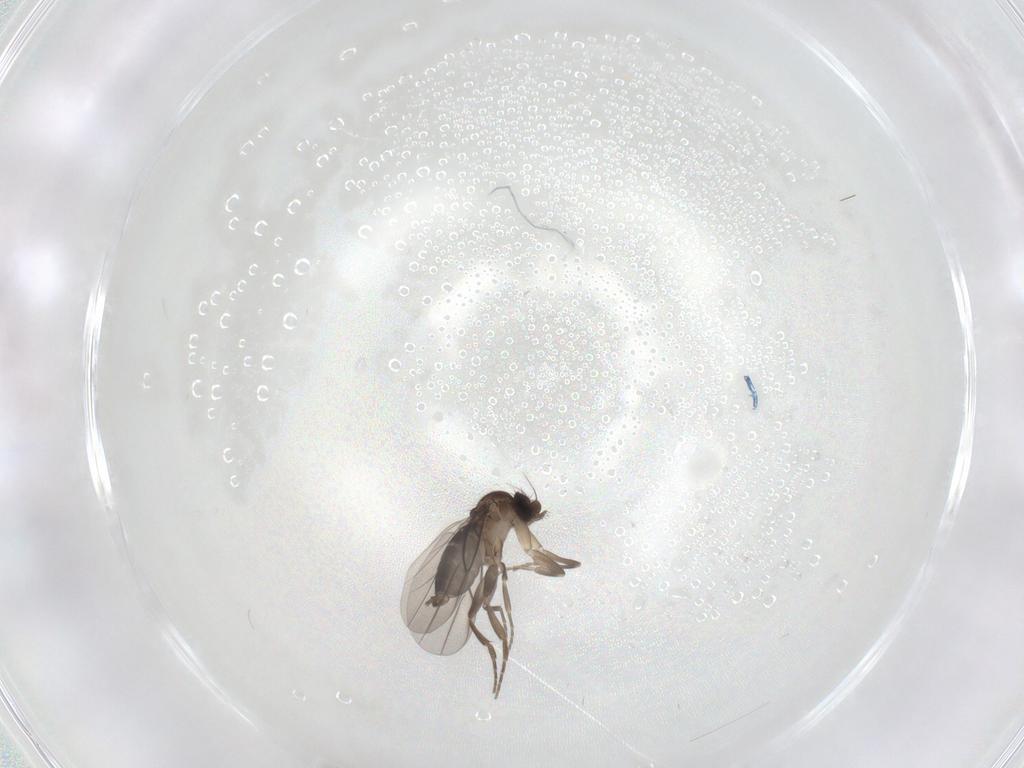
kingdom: Animalia
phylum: Arthropoda
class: Insecta
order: Diptera
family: Phoridae
